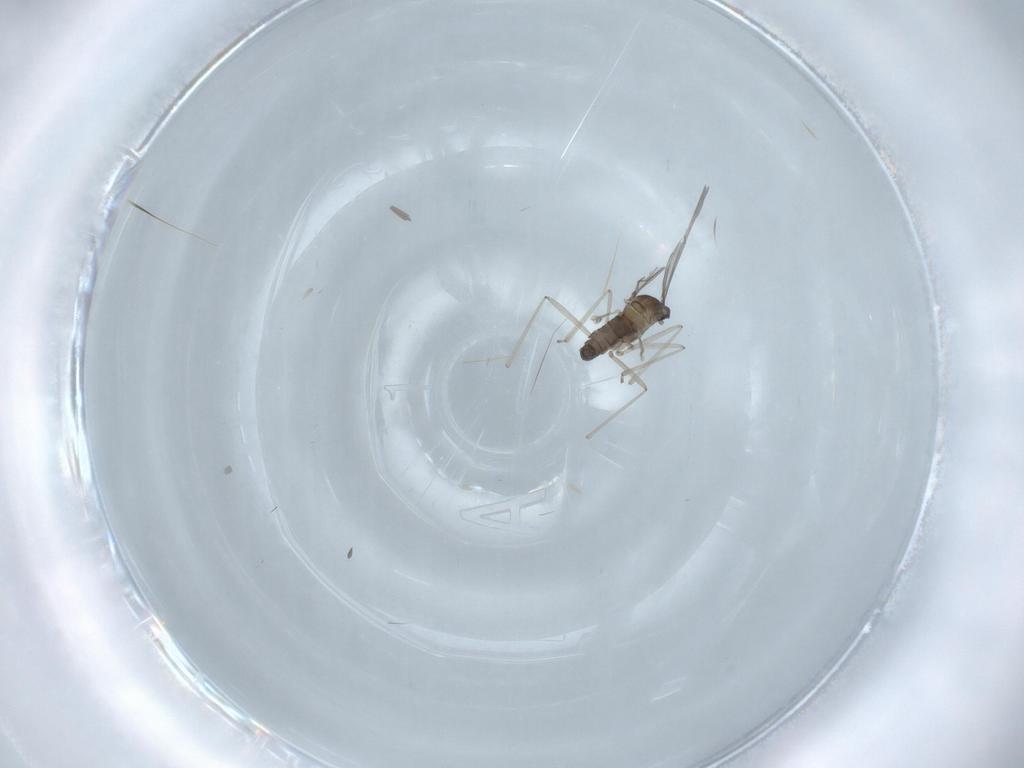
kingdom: Animalia
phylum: Arthropoda
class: Insecta
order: Diptera
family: Cecidomyiidae
